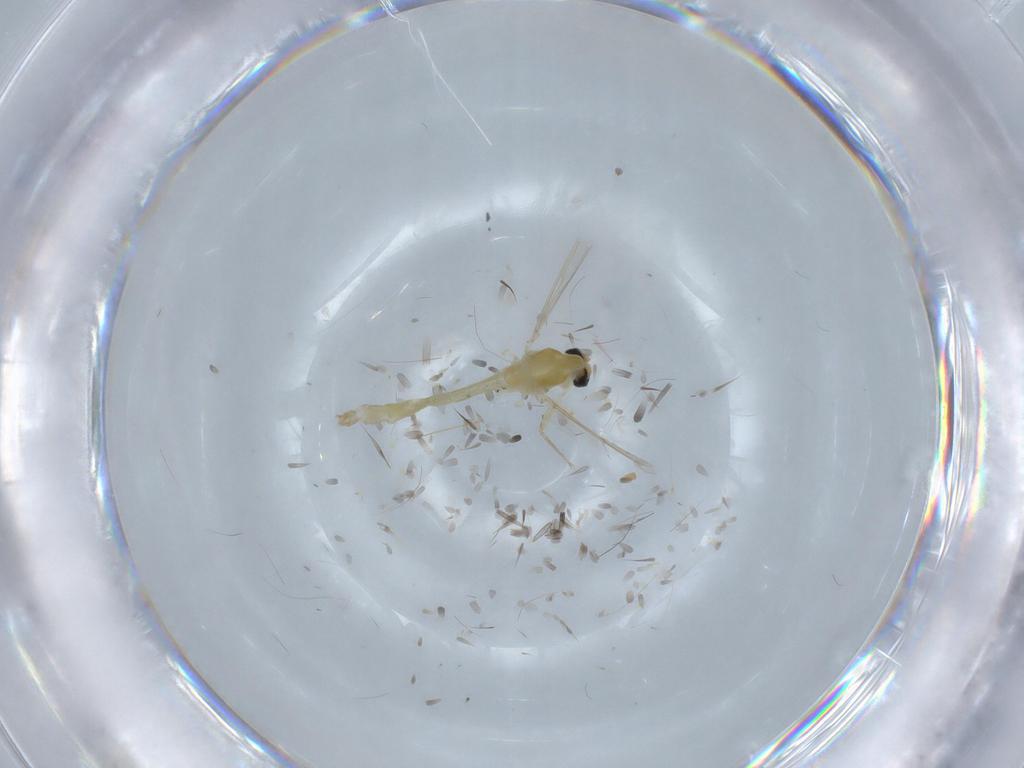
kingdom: Animalia
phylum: Arthropoda
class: Insecta
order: Diptera
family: Chironomidae
